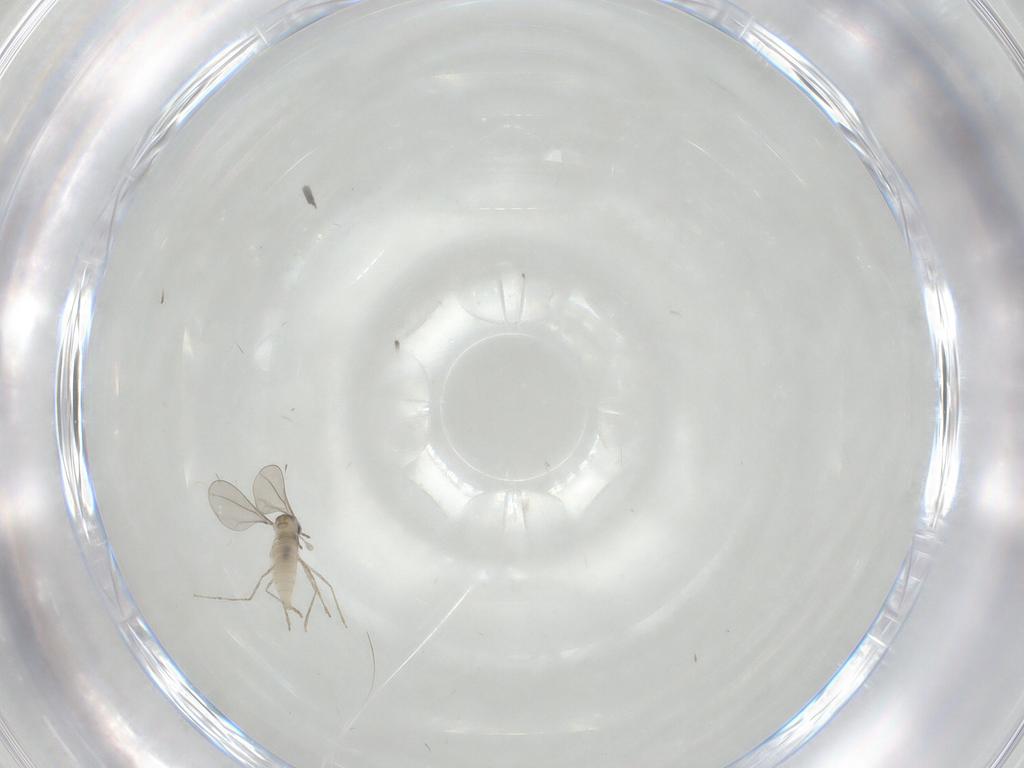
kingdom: Animalia
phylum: Arthropoda
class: Insecta
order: Diptera
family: Cecidomyiidae
